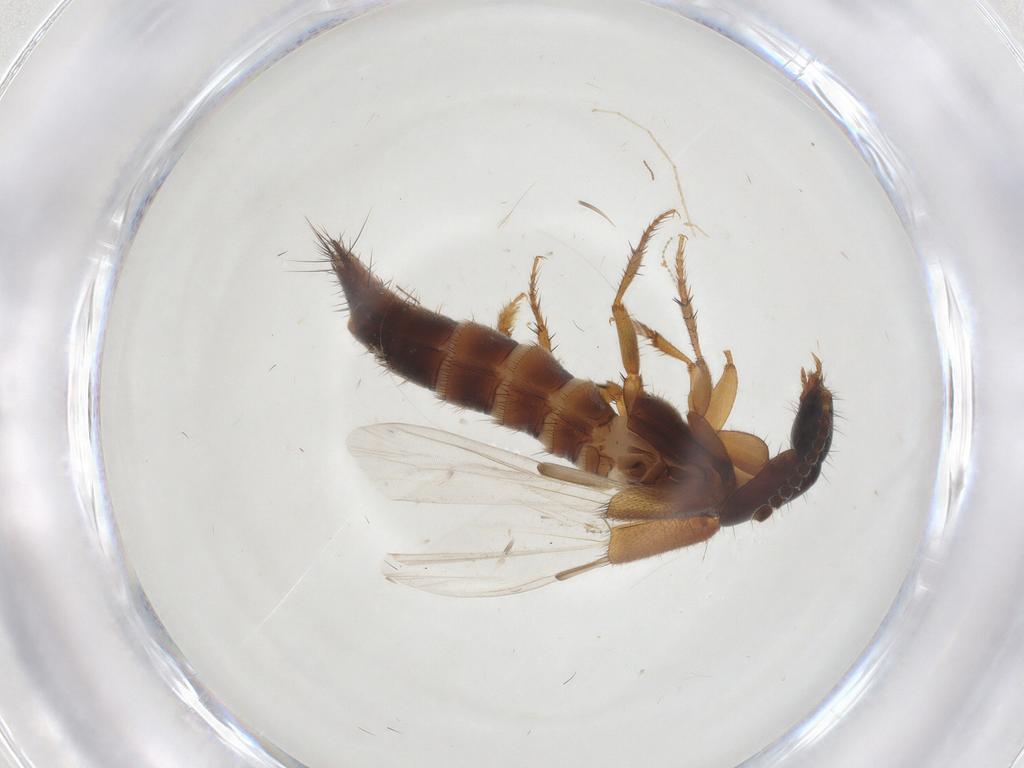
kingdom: Animalia
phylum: Arthropoda
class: Insecta
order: Coleoptera
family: Staphylinidae
